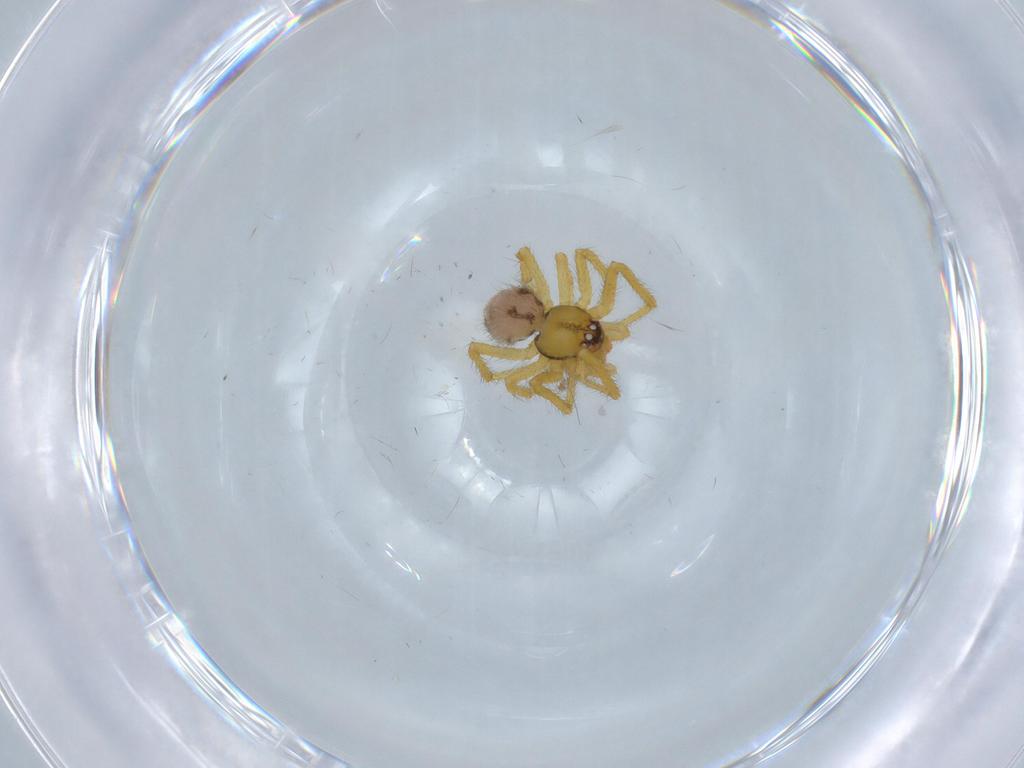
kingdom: Animalia
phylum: Arthropoda
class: Arachnida
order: Araneae
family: Theridiidae
